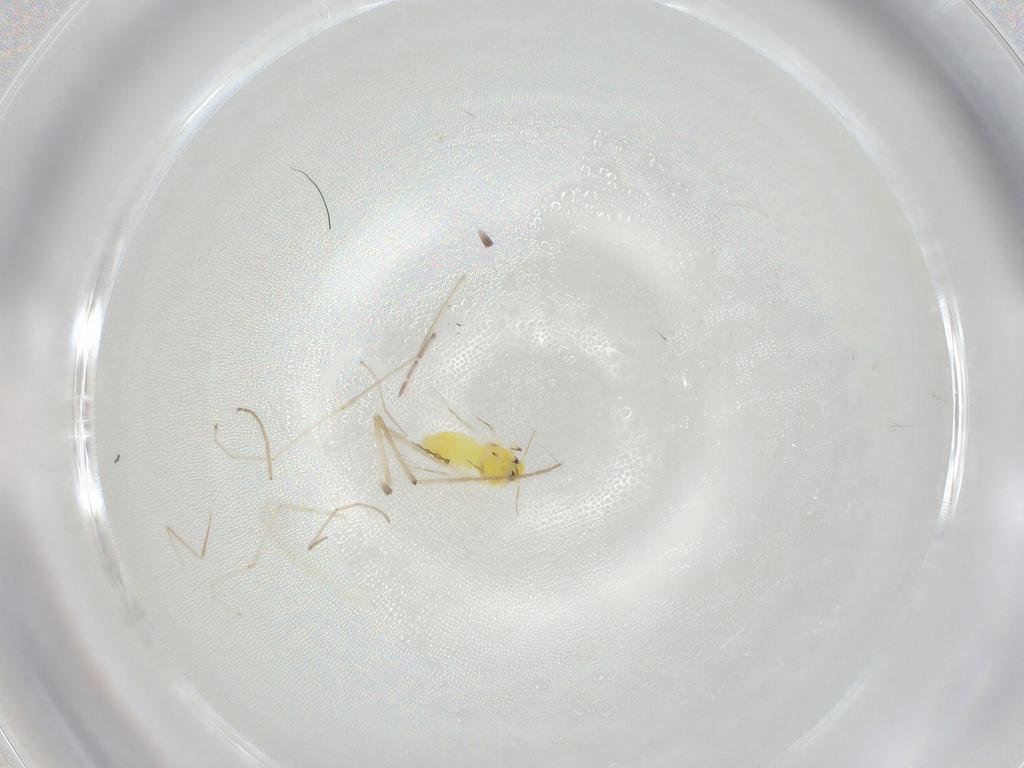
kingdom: Animalia
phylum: Arthropoda
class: Insecta
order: Hemiptera
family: Aleyrodidae
